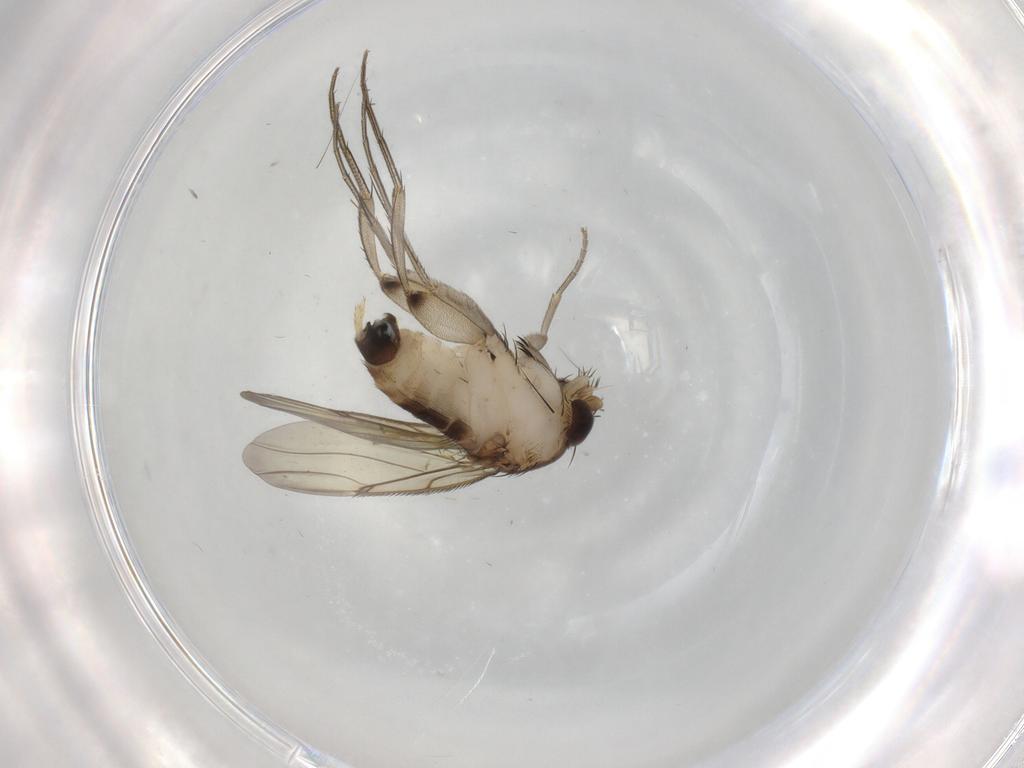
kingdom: Animalia
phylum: Arthropoda
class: Insecta
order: Diptera
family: Phoridae
